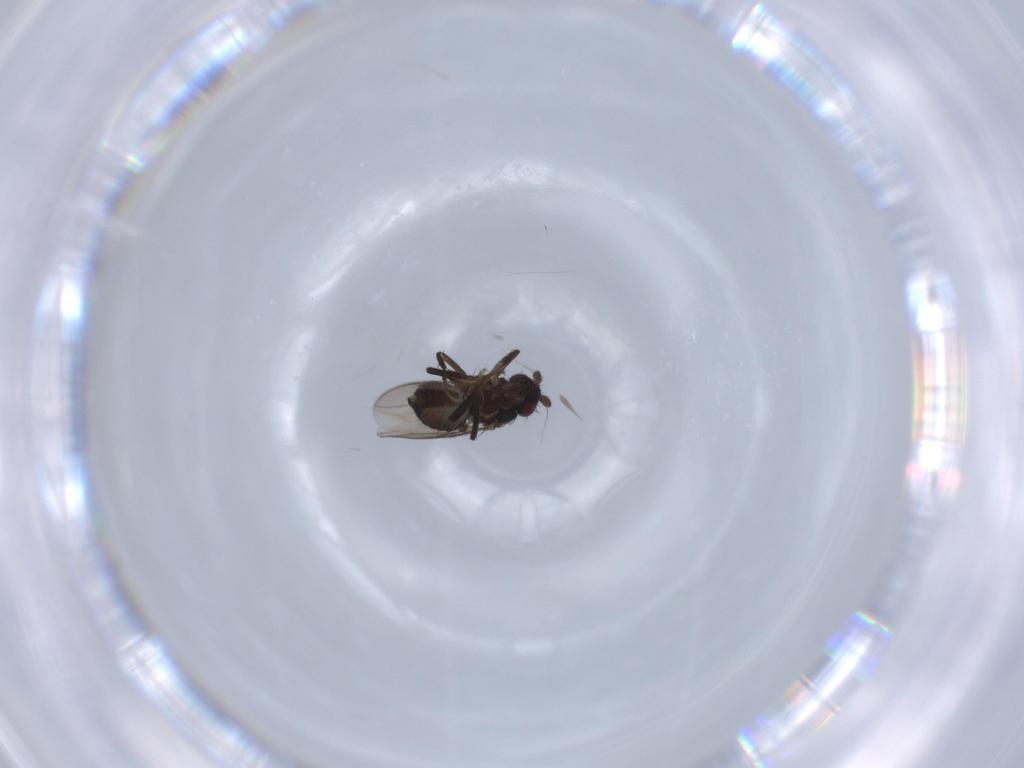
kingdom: Animalia
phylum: Arthropoda
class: Insecta
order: Diptera
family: Cecidomyiidae
